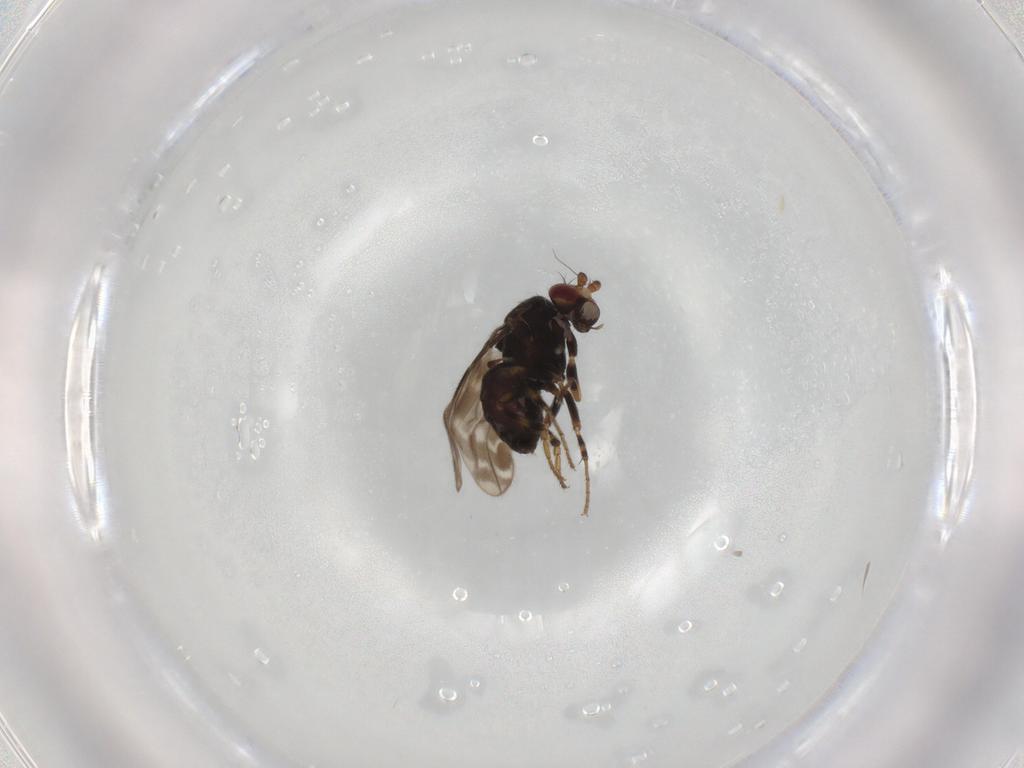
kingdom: Animalia
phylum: Arthropoda
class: Insecta
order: Diptera
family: Sphaeroceridae
